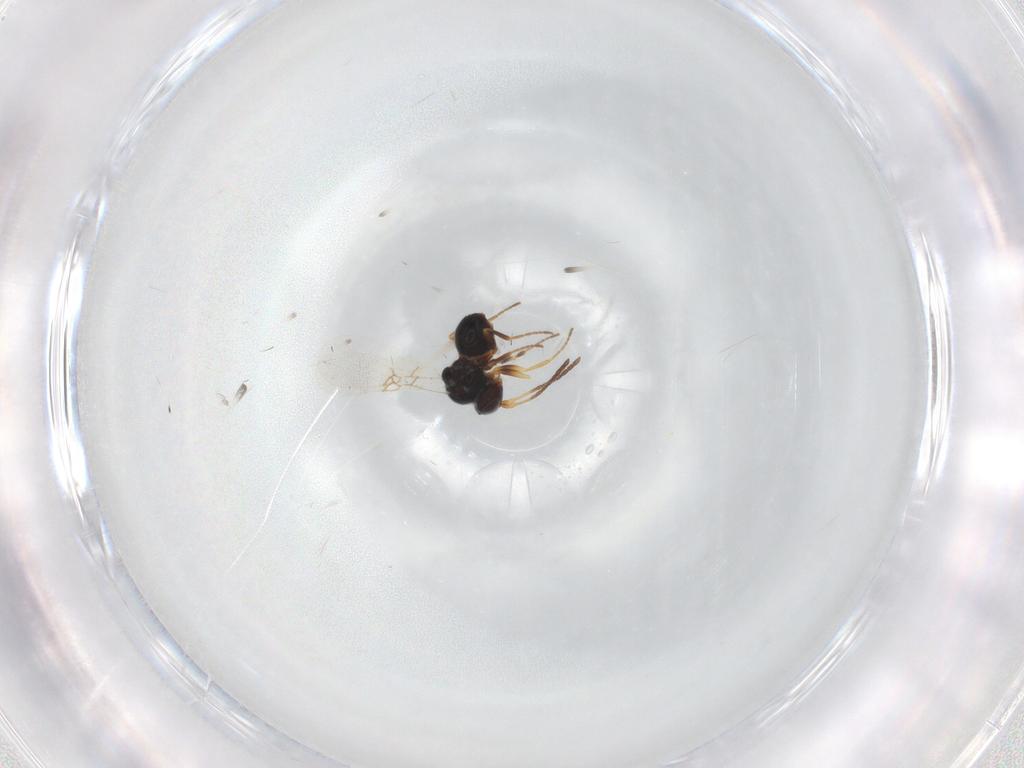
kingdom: Animalia
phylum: Arthropoda
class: Insecta
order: Hymenoptera
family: Figitidae
